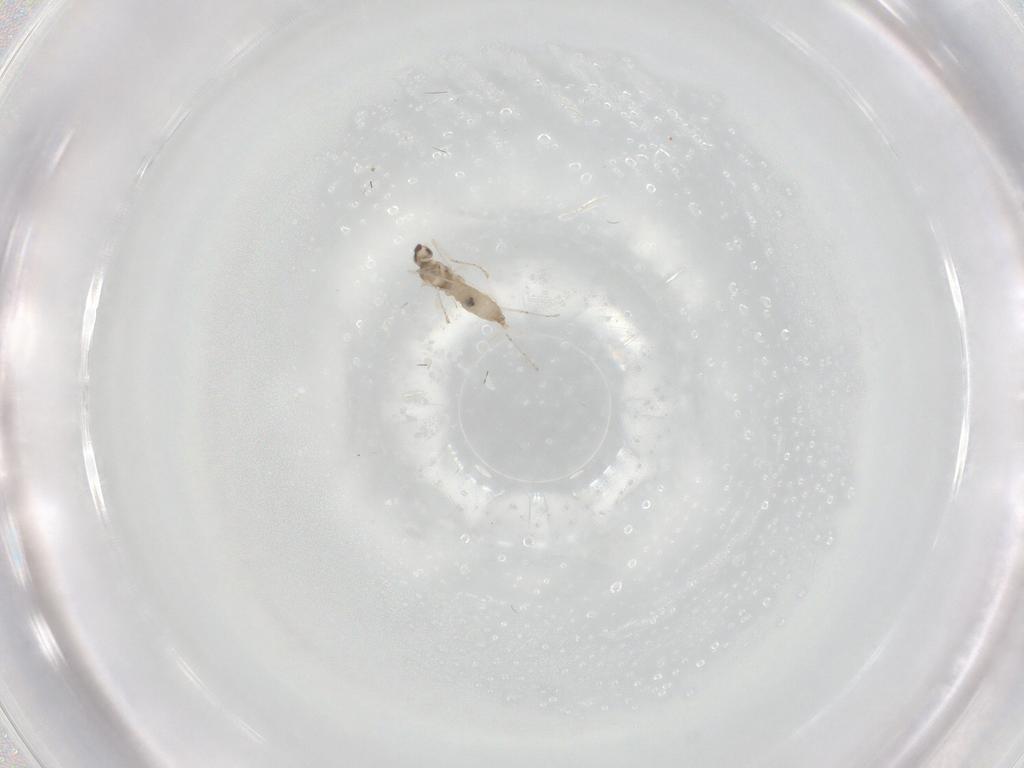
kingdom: Animalia
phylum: Arthropoda
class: Insecta
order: Diptera
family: Cecidomyiidae
